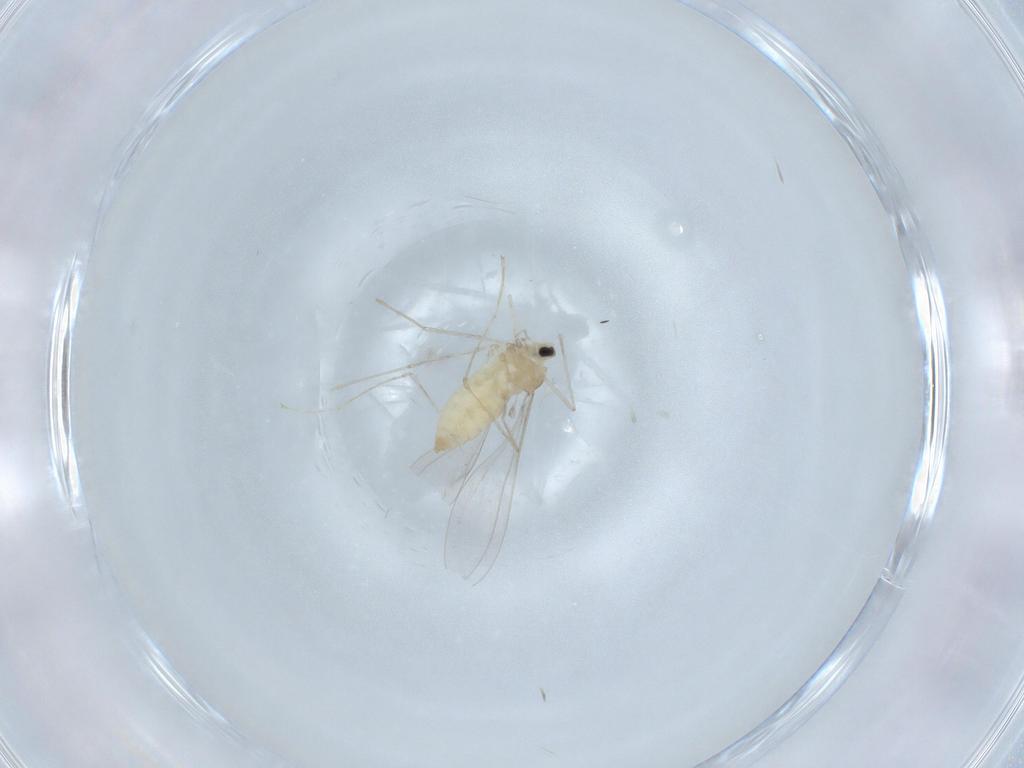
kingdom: Animalia
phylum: Arthropoda
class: Insecta
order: Diptera
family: Cecidomyiidae
